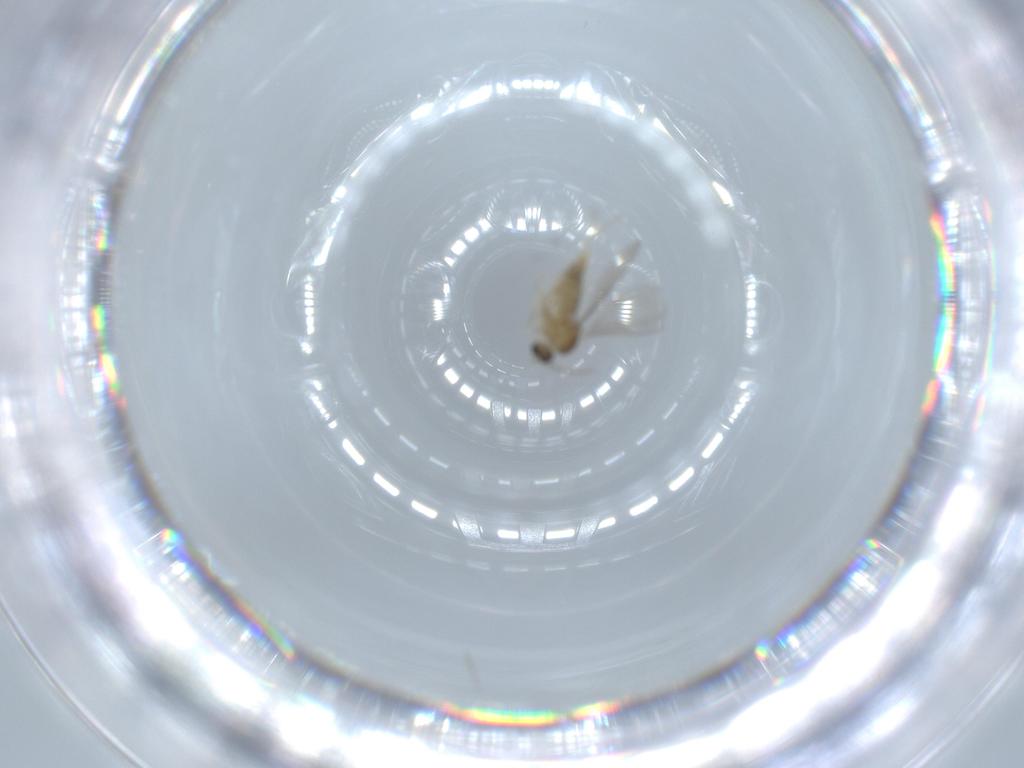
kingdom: Animalia
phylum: Arthropoda
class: Insecta
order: Diptera
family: Cecidomyiidae
